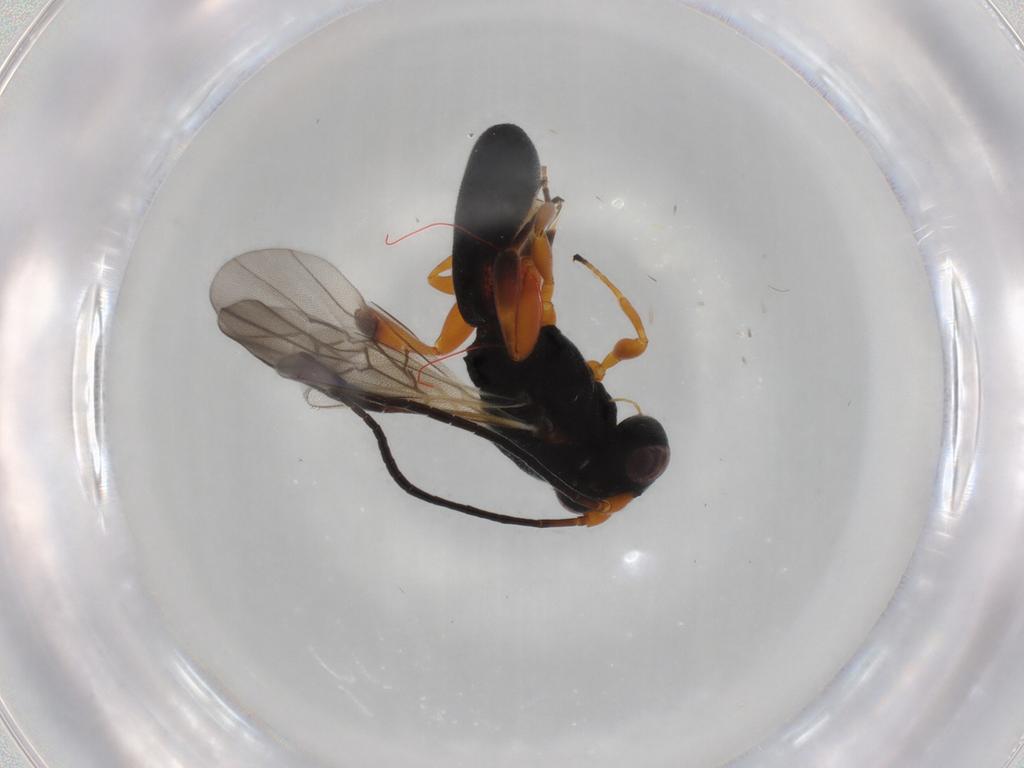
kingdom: Animalia
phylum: Arthropoda
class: Insecta
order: Hymenoptera
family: Braconidae
